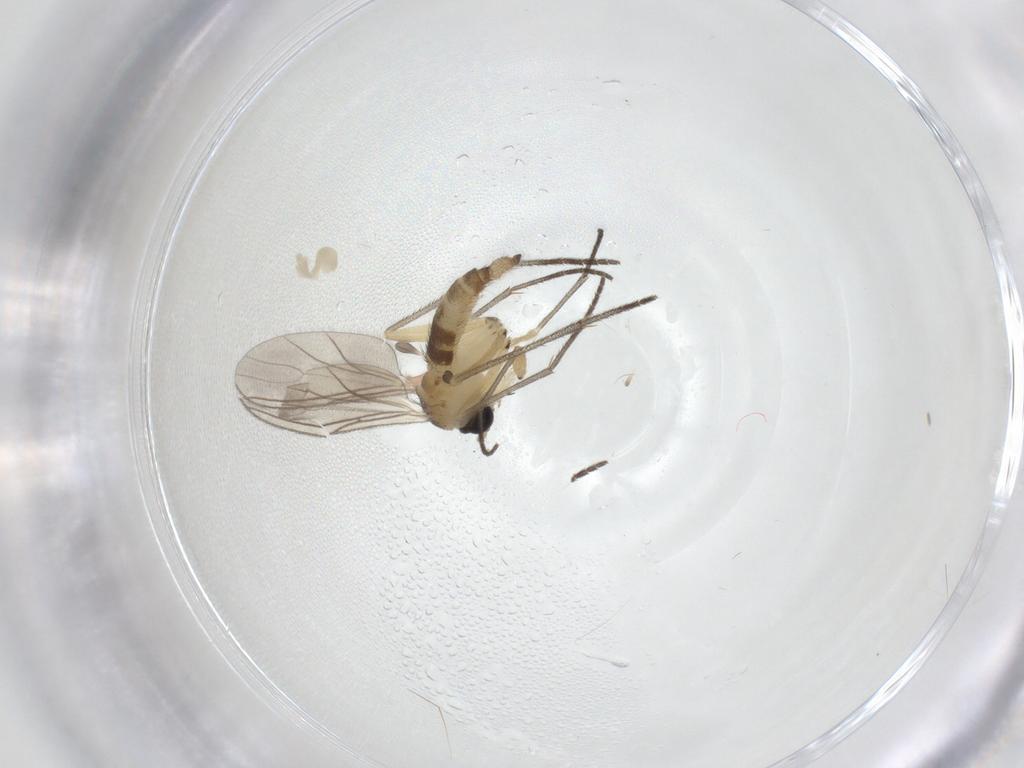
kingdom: Animalia
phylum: Arthropoda
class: Insecta
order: Diptera
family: Sciaridae
